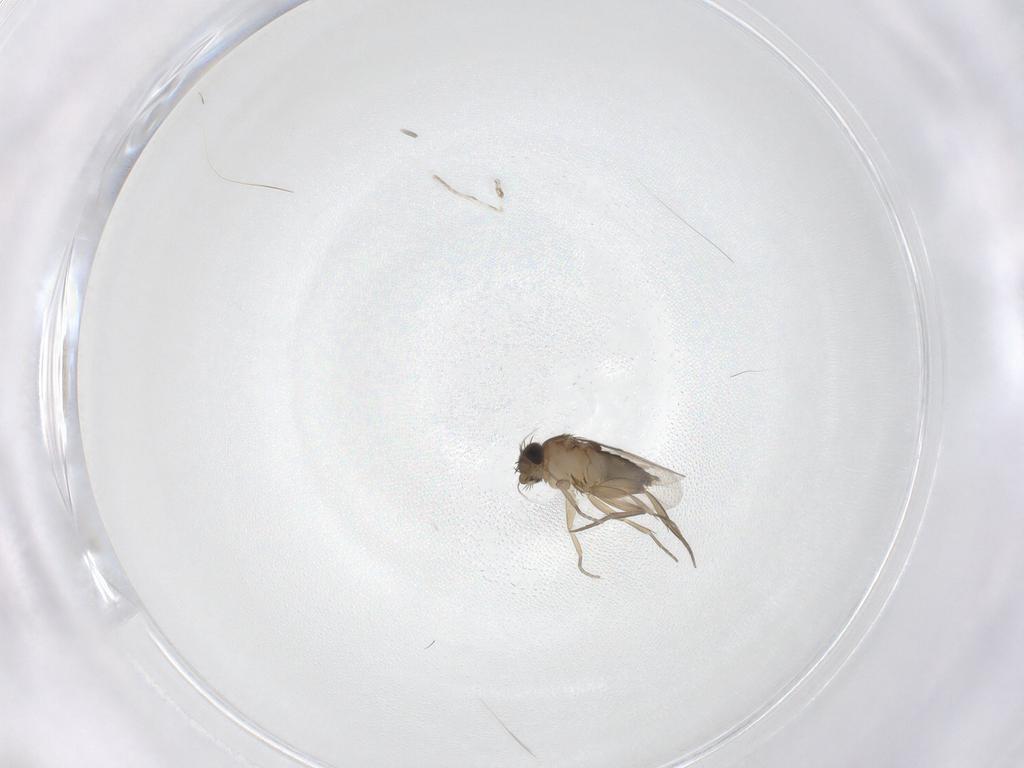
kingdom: Animalia
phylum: Arthropoda
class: Insecta
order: Diptera
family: Phoridae
